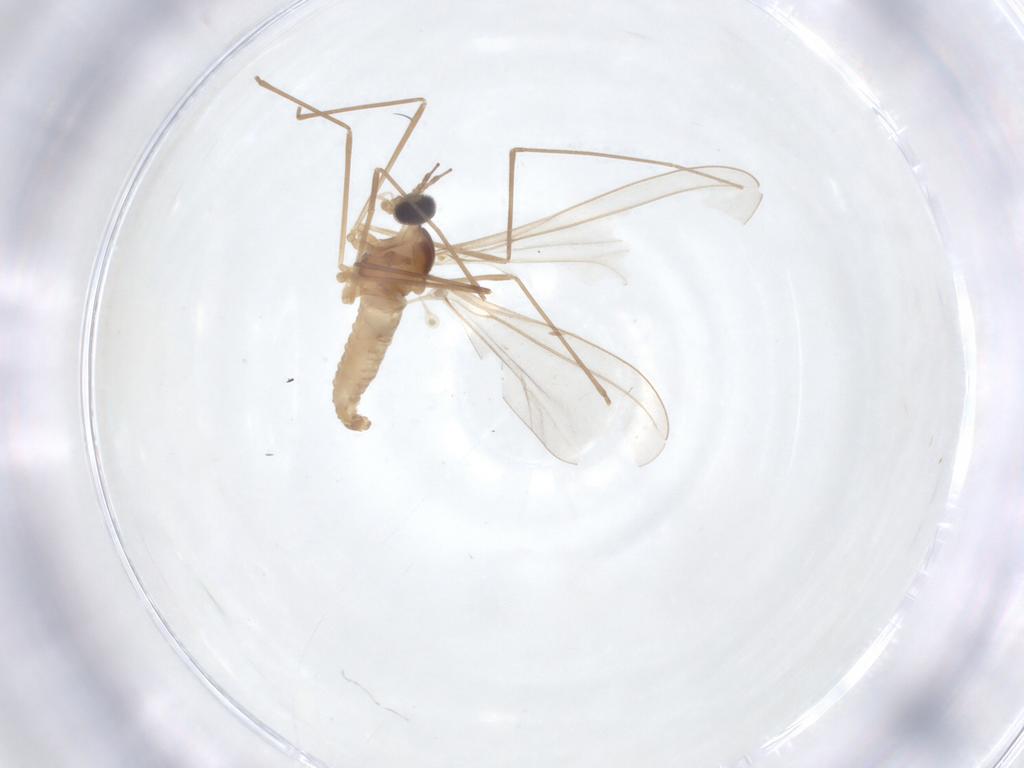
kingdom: Animalia
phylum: Arthropoda
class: Insecta
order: Diptera
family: Cecidomyiidae
